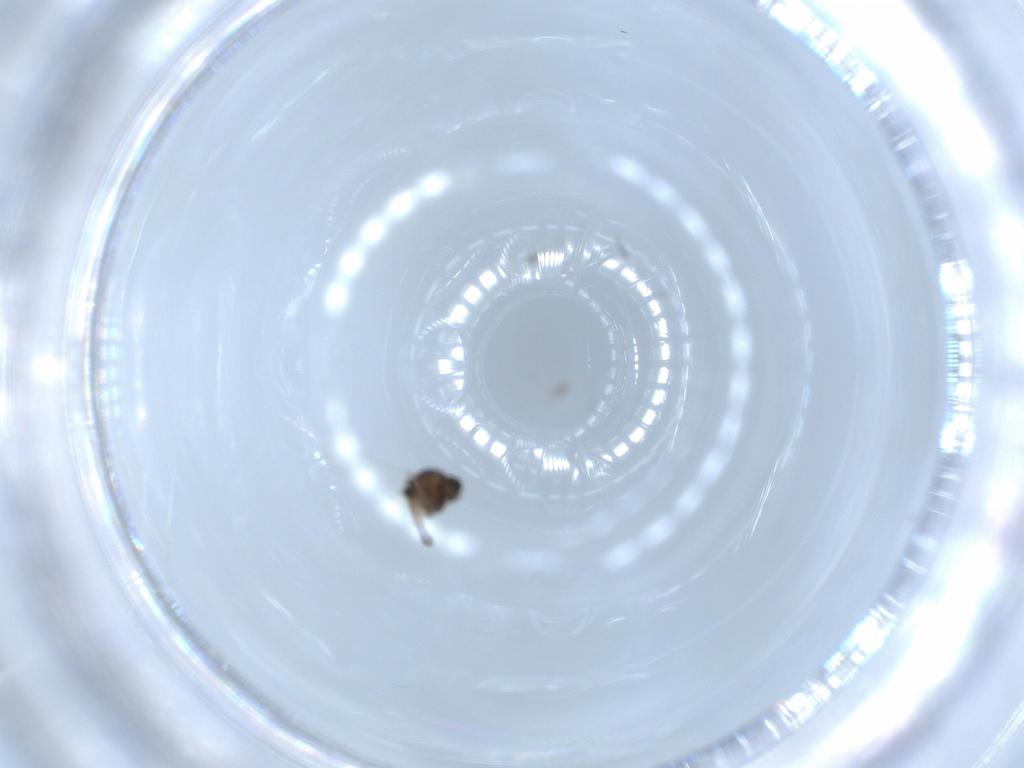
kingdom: Animalia
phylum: Arthropoda
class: Insecta
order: Diptera
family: Chironomidae
